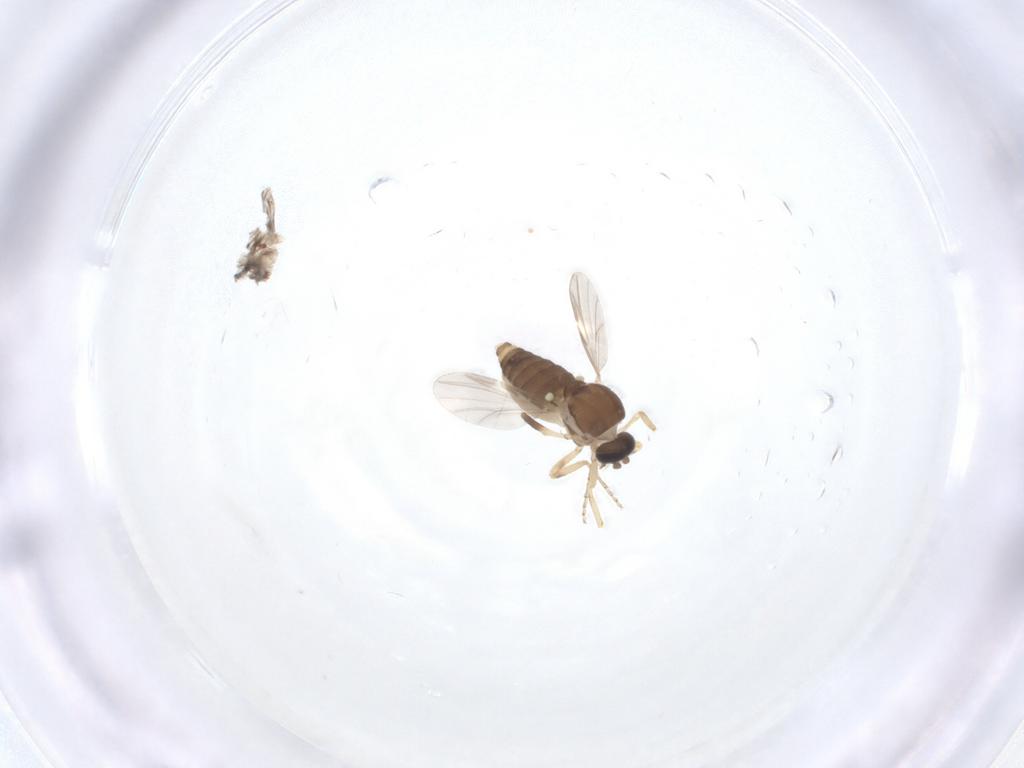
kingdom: Animalia
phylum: Arthropoda
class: Insecta
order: Diptera
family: Ceratopogonidae
